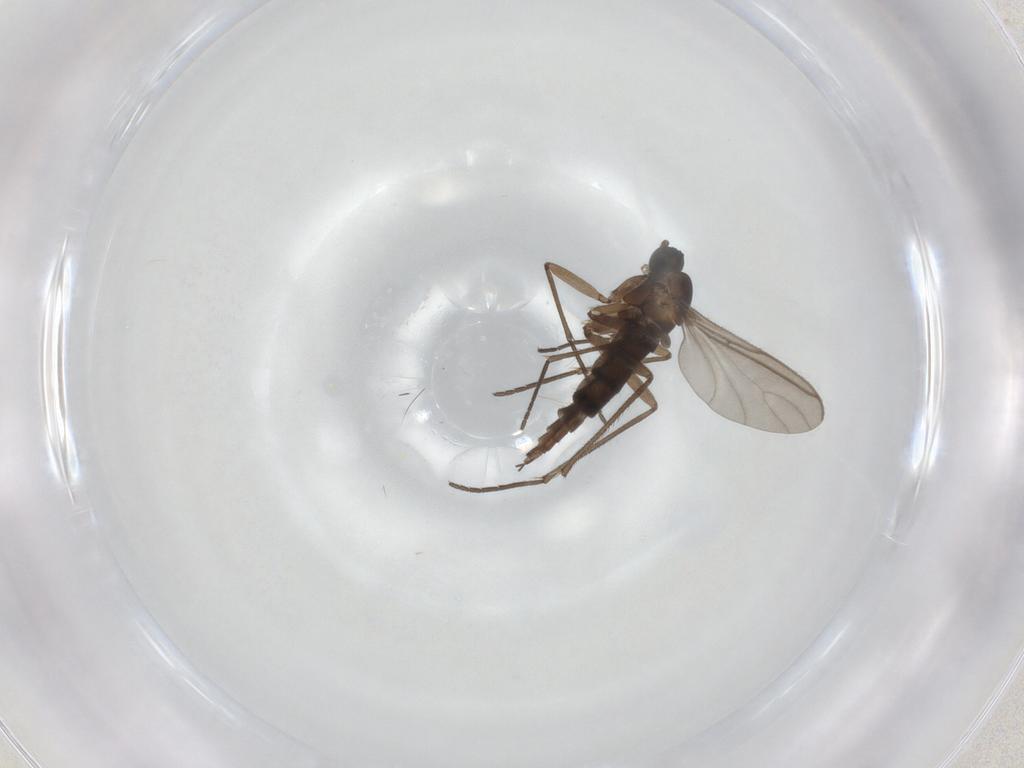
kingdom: Animalia
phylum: Arthropoda
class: Insecta
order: Diptera
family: Sciaridae
